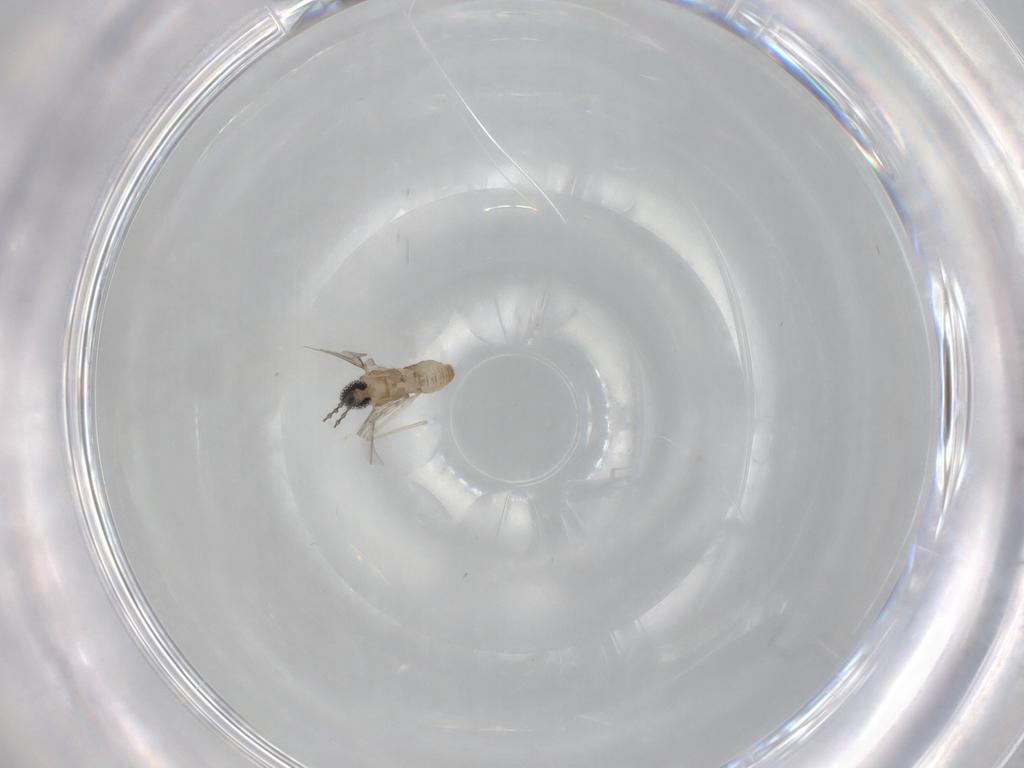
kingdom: Animalia
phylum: Arthropoda
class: Insecta
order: Diptera
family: Cecidomyiidae
